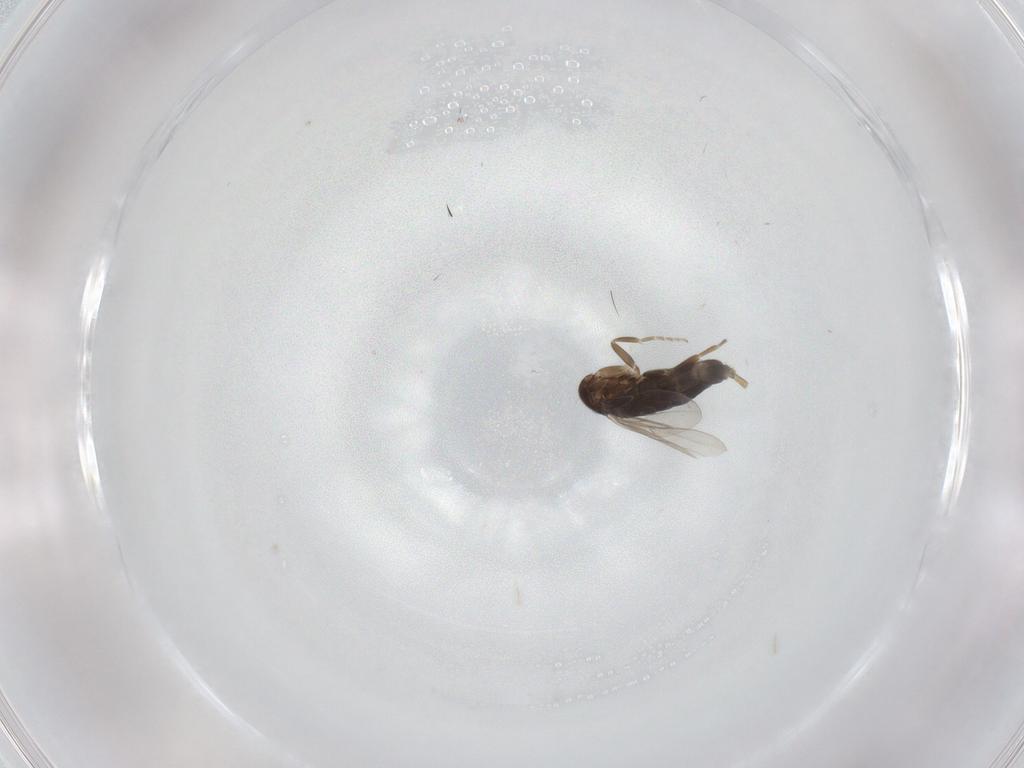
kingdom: Animalia
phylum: Arthropoda
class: Insecta
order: Diptera
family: Phoridae
